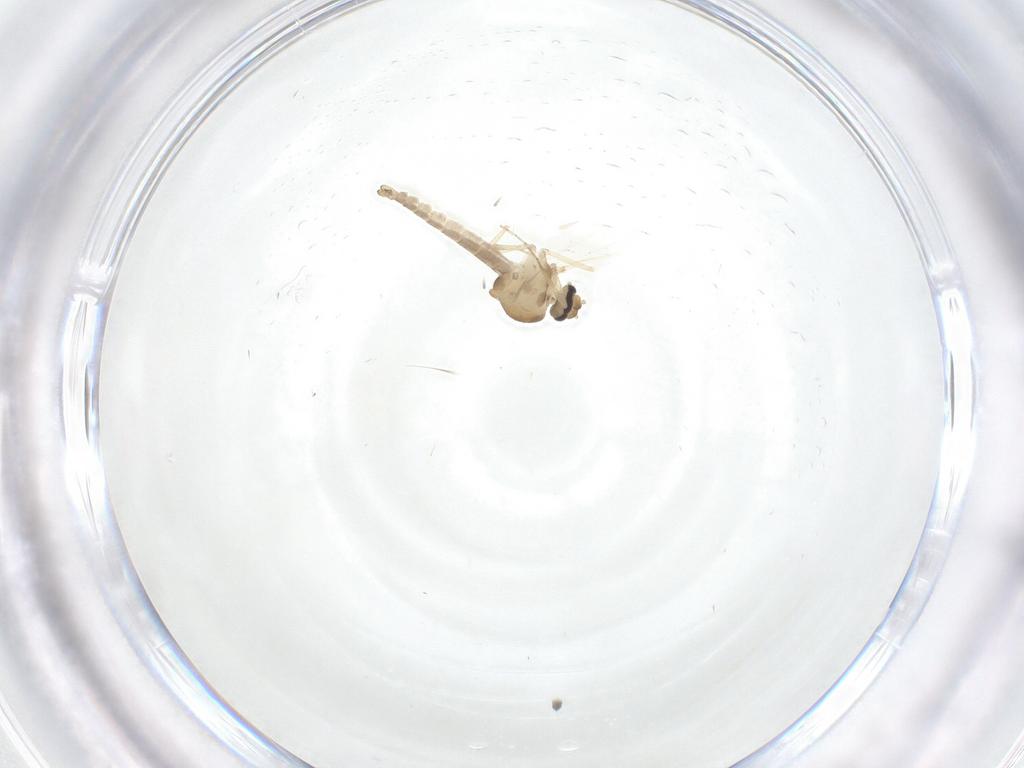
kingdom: Animalia
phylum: Arthropoda
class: Insecta
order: Diptera
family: Ceratopogonidae
